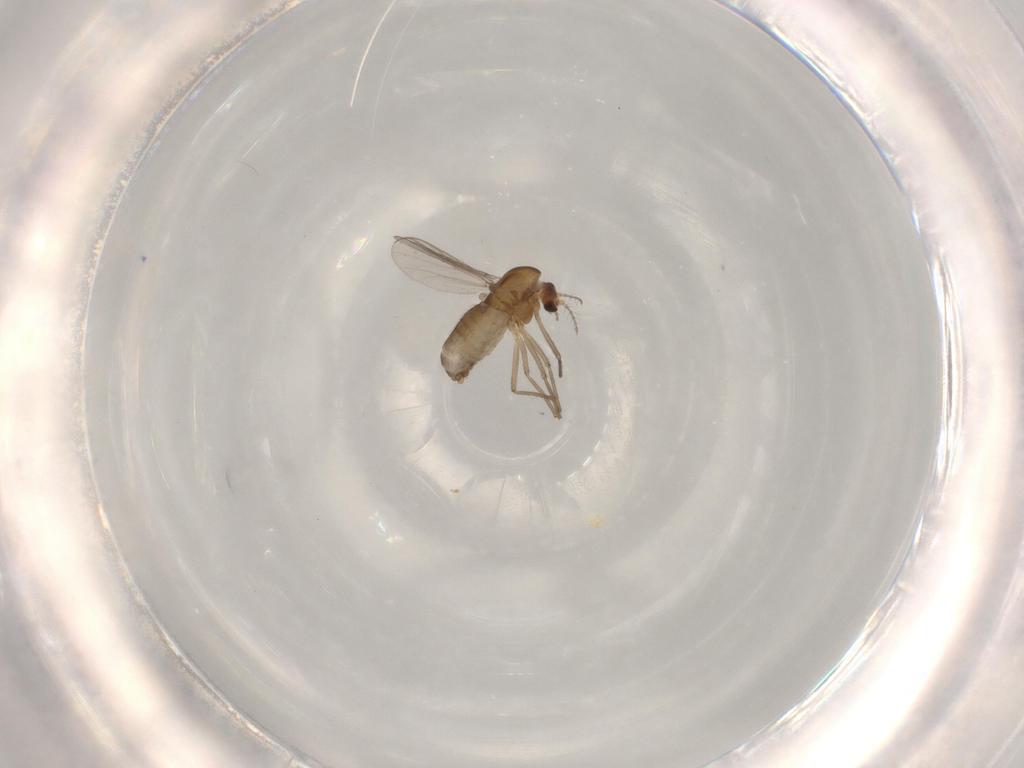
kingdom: Animalia
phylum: Arthropoda
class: Insecta
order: Diptera
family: Chironomidae
